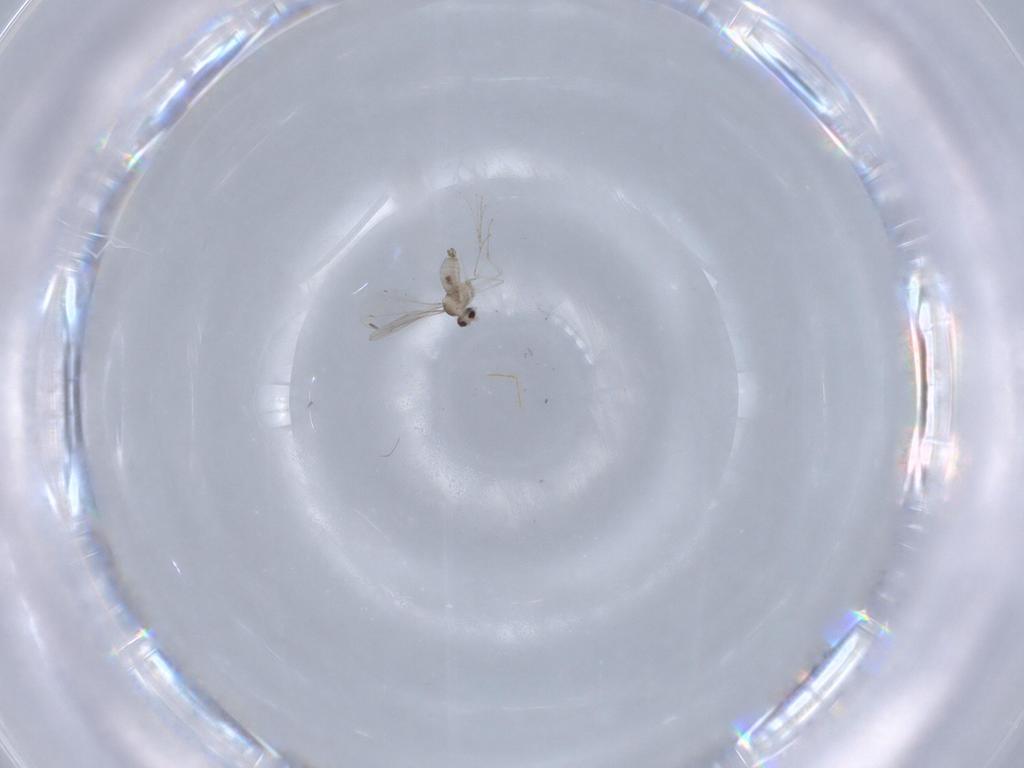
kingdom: Animalia
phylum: Arthropoda
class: Insecta
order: Diptera
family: Cecidomyiidae
